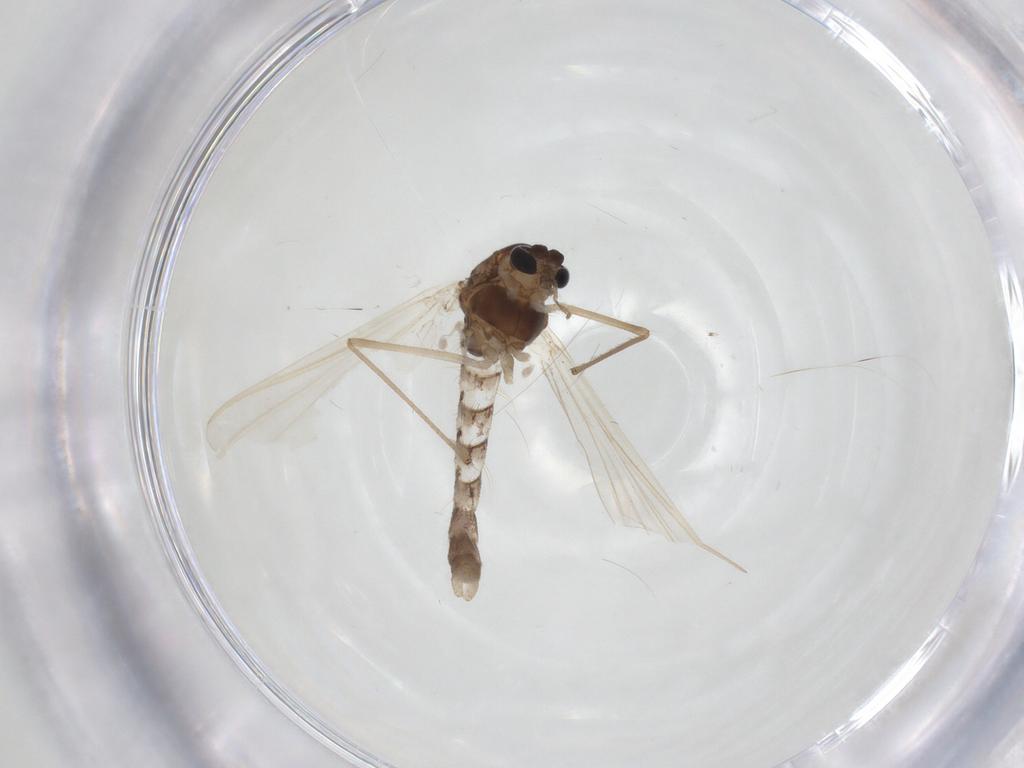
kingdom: Animalia
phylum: Arthropoda
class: Insecta
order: Diptera
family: Chironomidae
